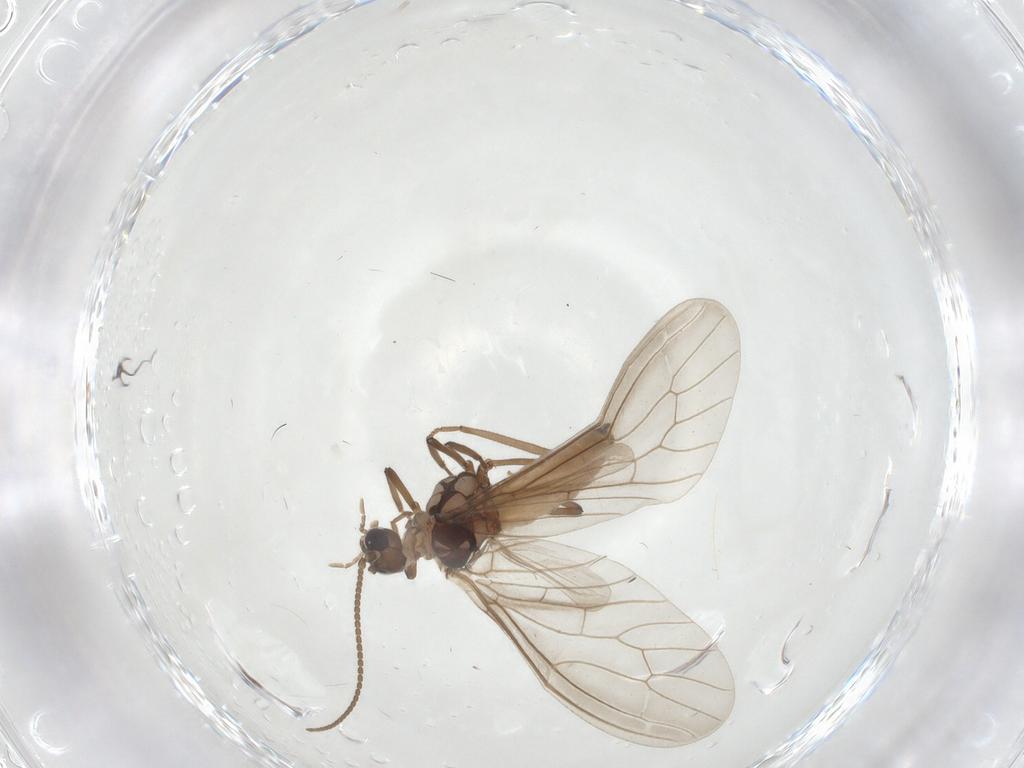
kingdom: Animalia
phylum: Arthropoda
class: Insecta
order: Neuroptera
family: Coniopterygidae
